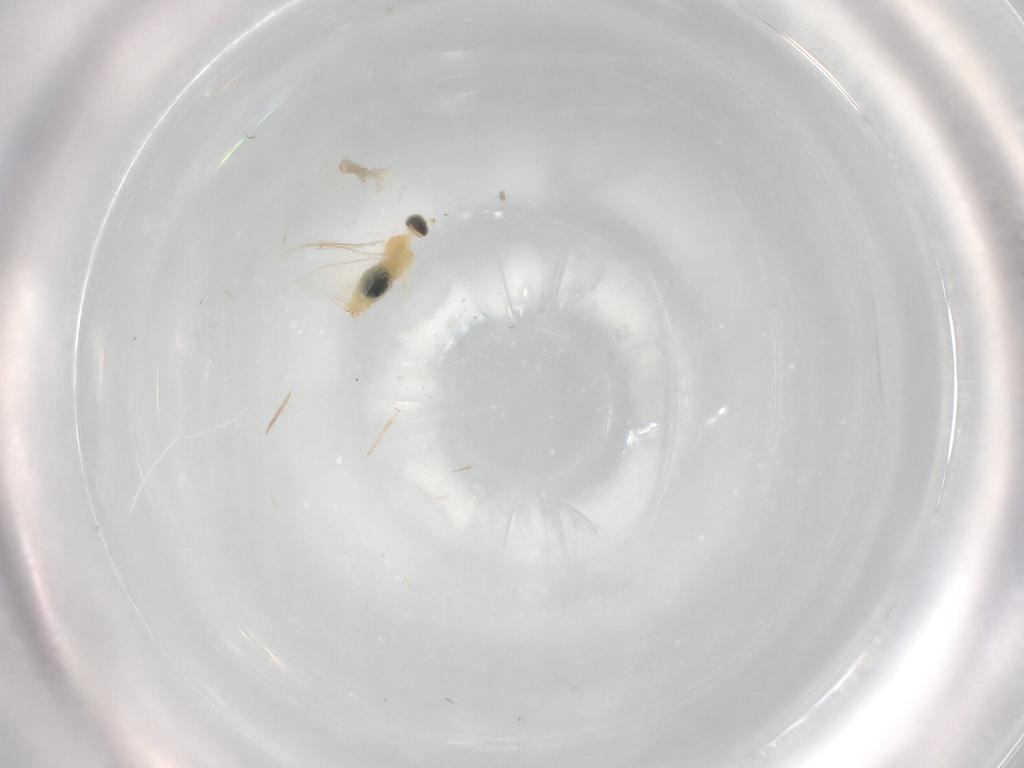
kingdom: Animalia
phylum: Arthropoda
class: Insecta
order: Diptera
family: Cecidomyiidae
